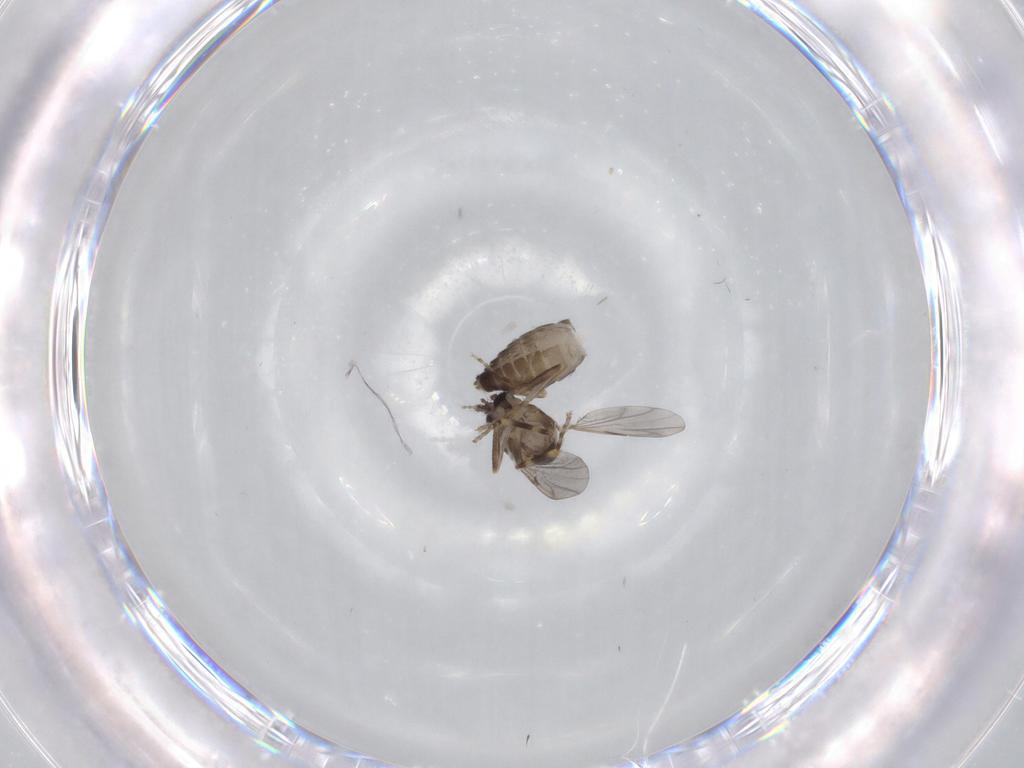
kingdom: Animalia
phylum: Arthropoda
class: Insecta
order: Diptera
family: Ceratopogonidae
